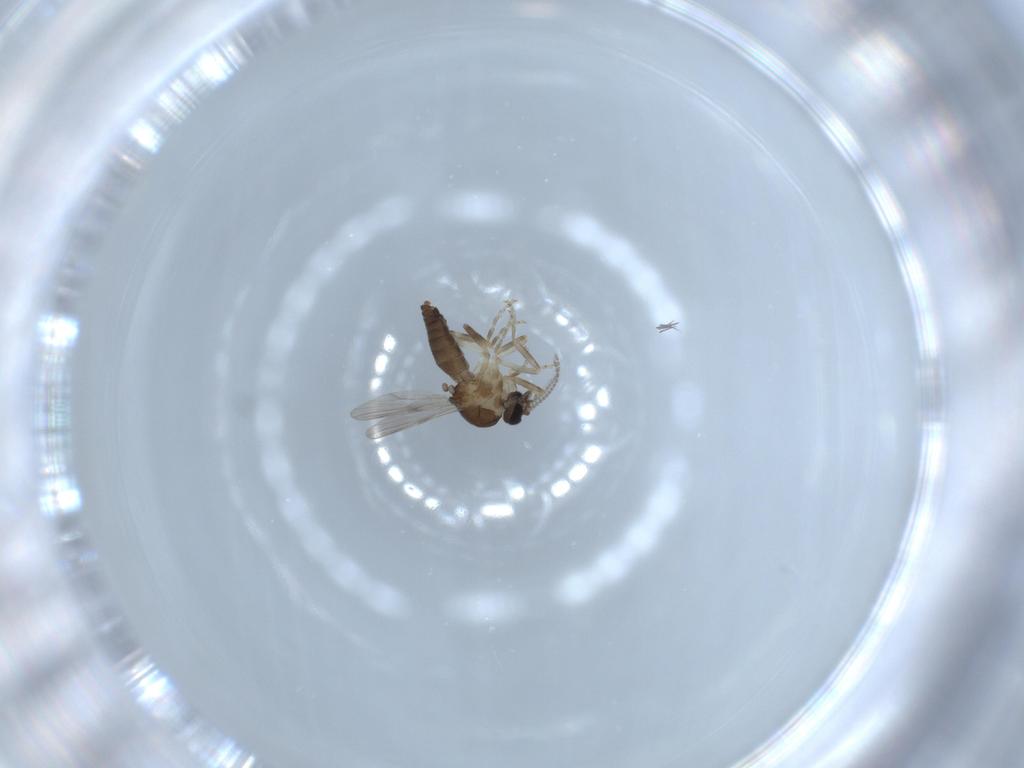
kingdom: Animalia
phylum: Arthropoda
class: Insecta
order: Diptera
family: Ceratopogonidae
